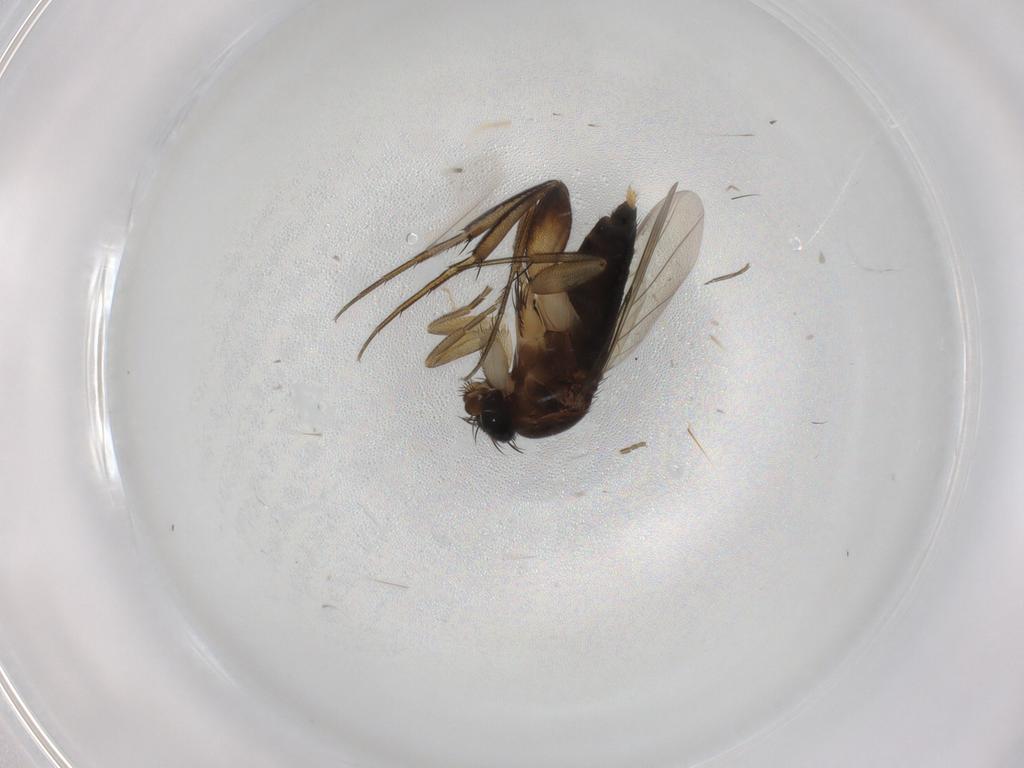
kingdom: Animalia
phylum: Arthropoda
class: Insecta
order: Diptera
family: Phoridae
